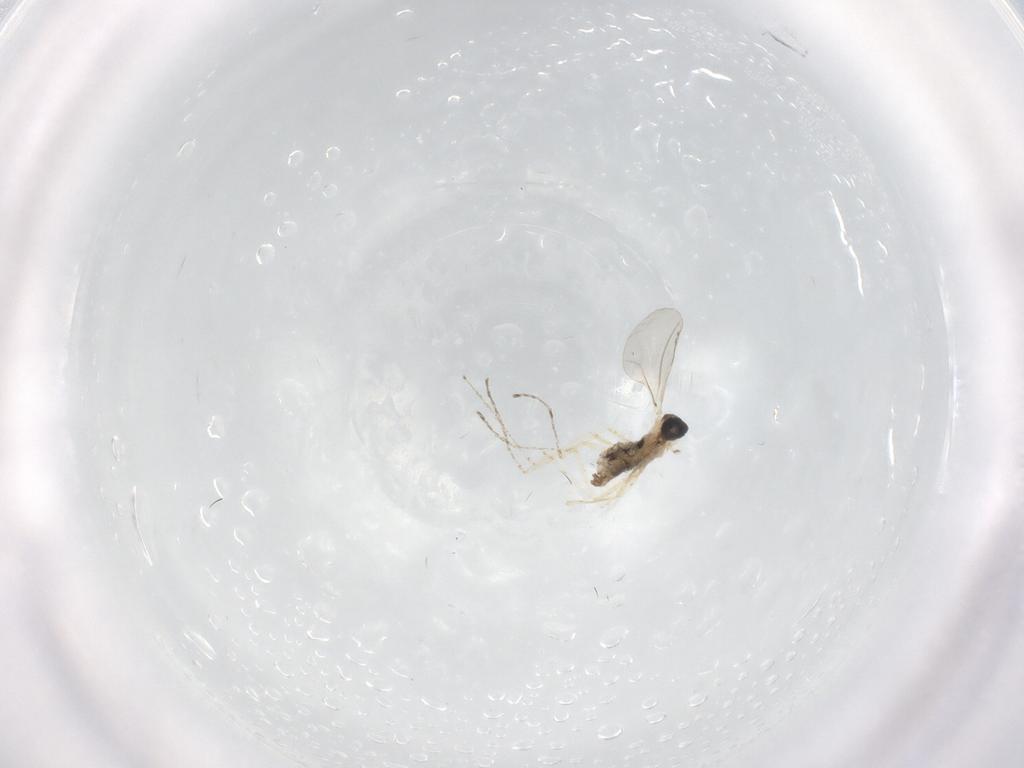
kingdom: Animalia
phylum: Arthropoda
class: Insecta
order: Diptera
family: Cecidomyiidae
